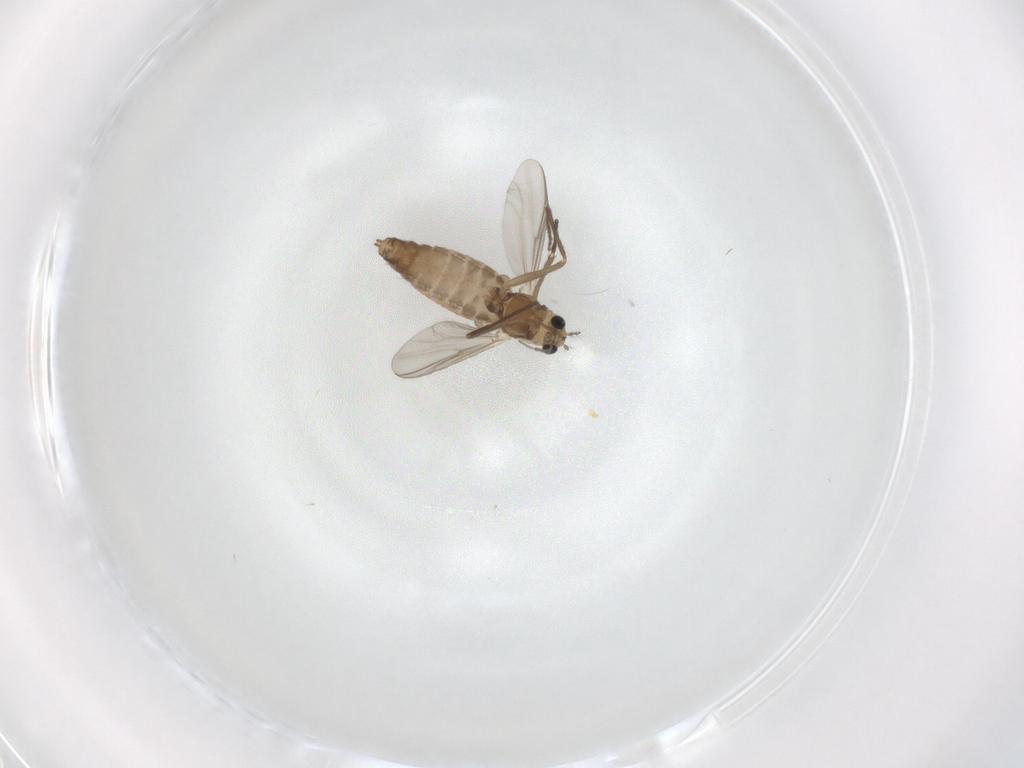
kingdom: Animalia
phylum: Arthropoda
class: Insecta
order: Diptera
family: Chironomidae
